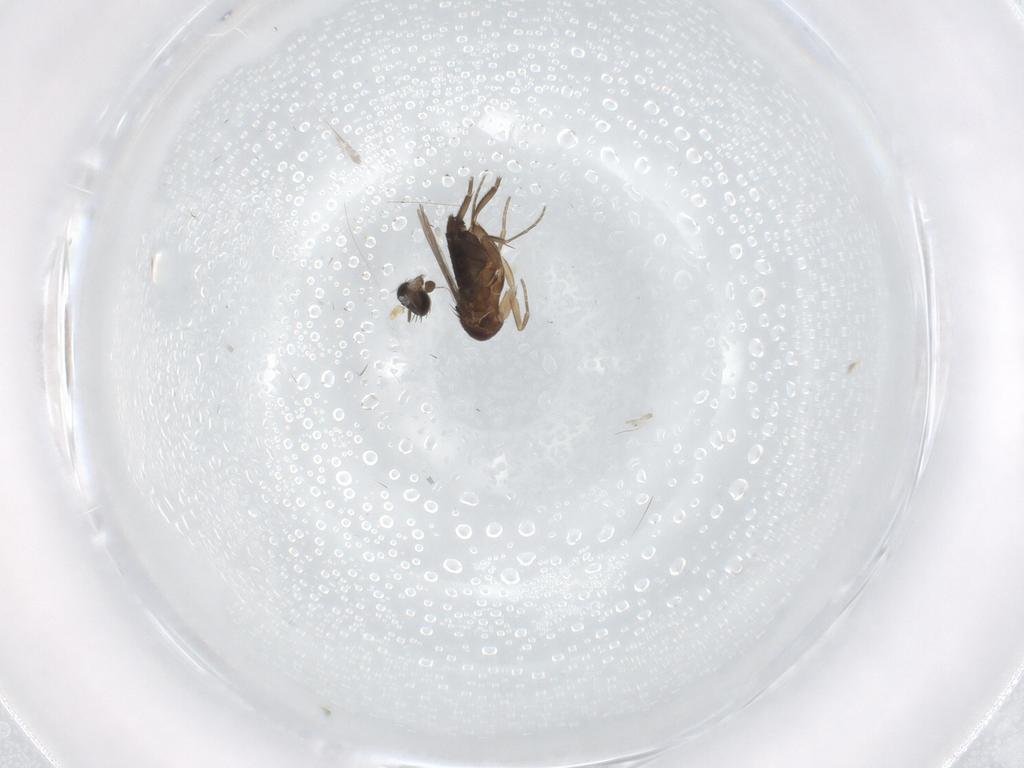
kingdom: Animalia
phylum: Arthropoda
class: Insecta
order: Diptera
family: Phoridae
